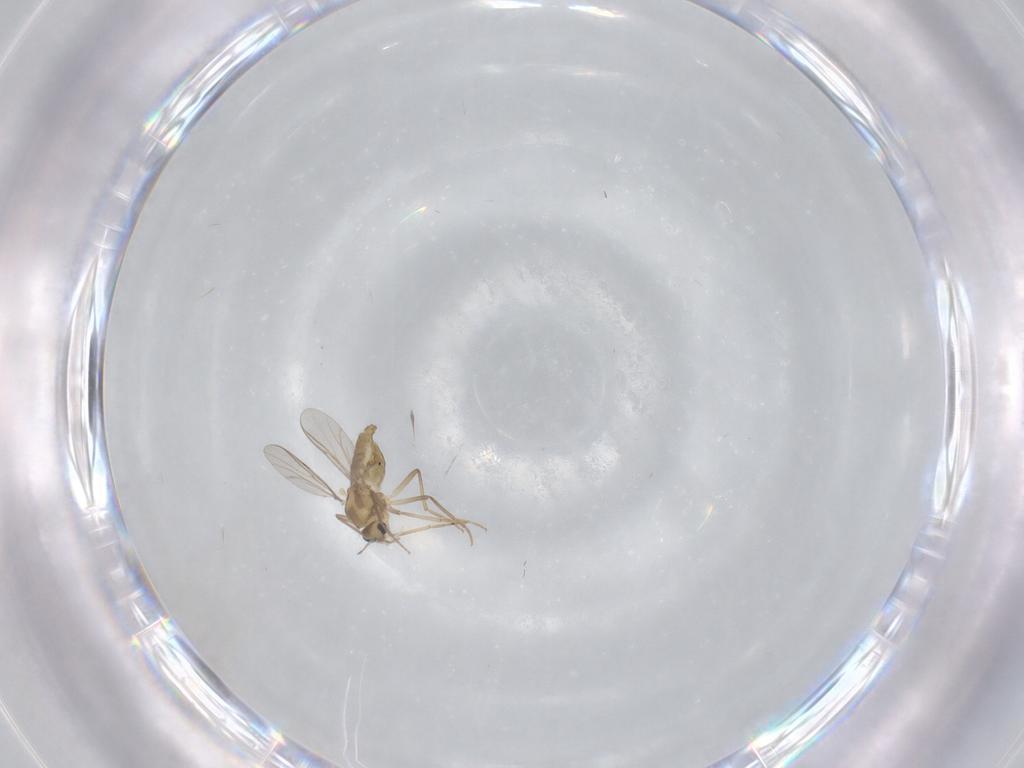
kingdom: Animalia
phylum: Arthropoda
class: Insecta
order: Diptera
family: Chironomidae
